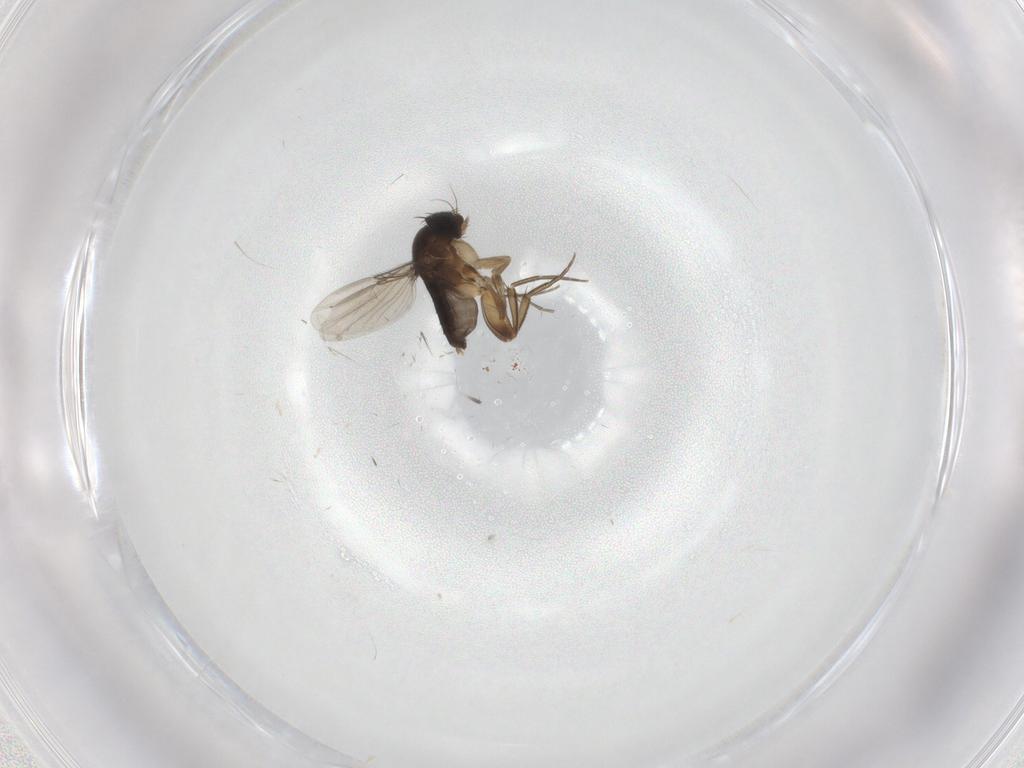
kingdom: Animalia
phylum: Arthropoda
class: Insecta
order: Diptera
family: Phoridae
